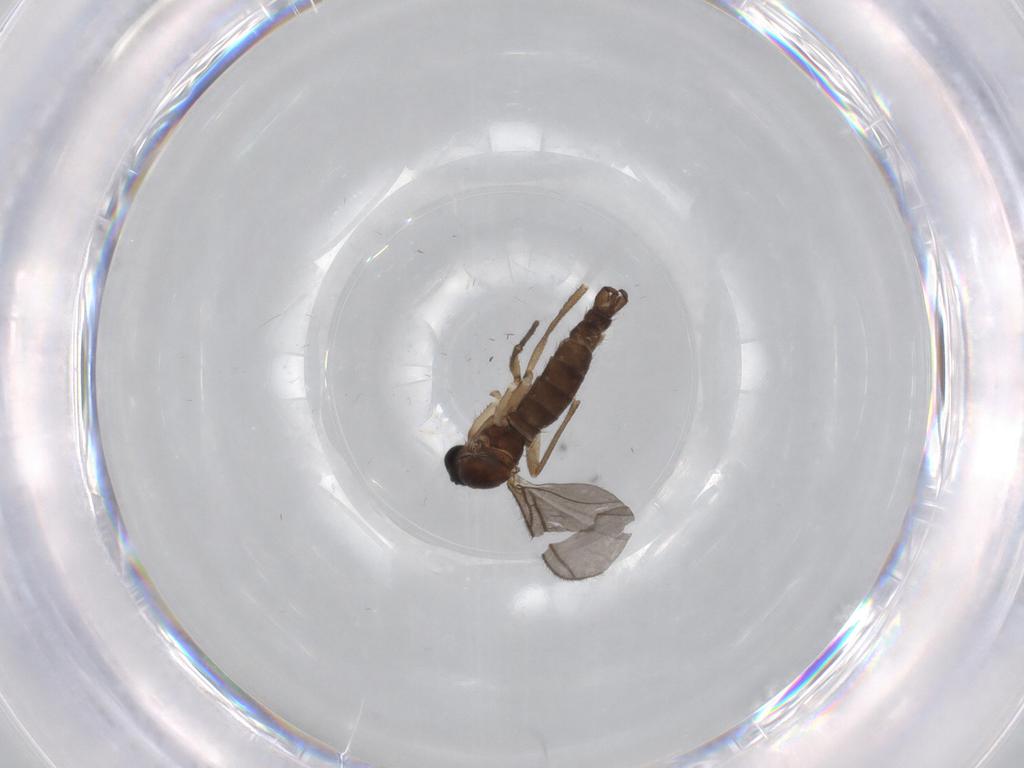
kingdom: Animalia
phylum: Arthropoda
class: Insecta
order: Diptera
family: Sciaridae
